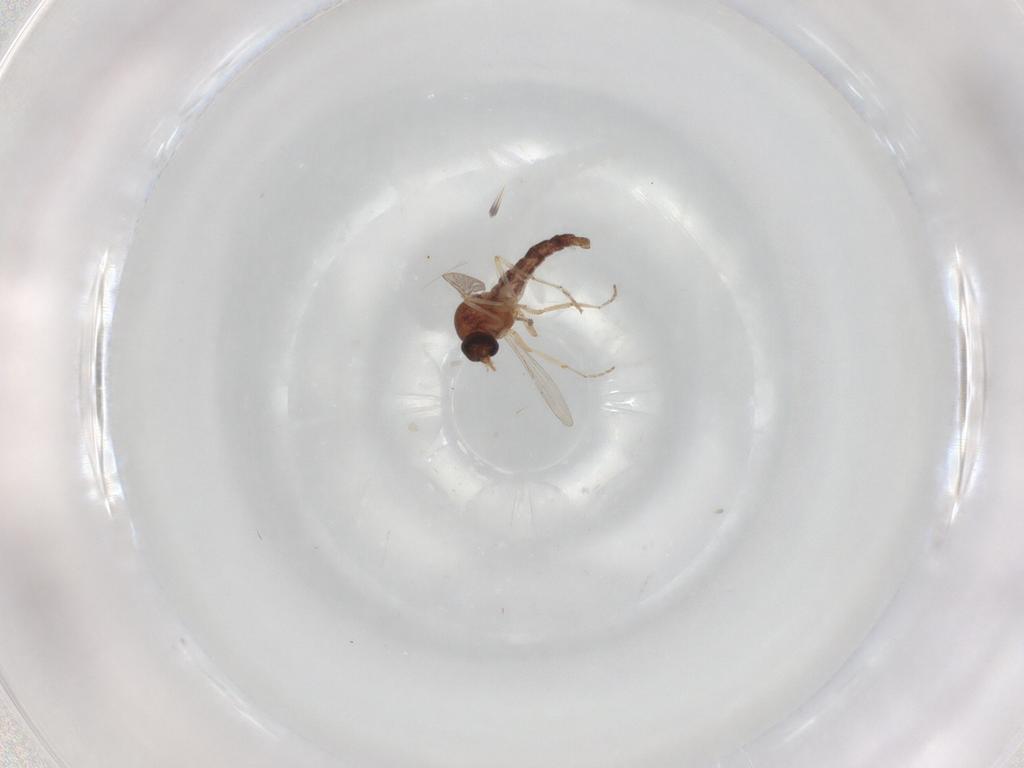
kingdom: Animalia
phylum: Arthropoda
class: Insecta
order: Diptera
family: Ceratopogonidae
